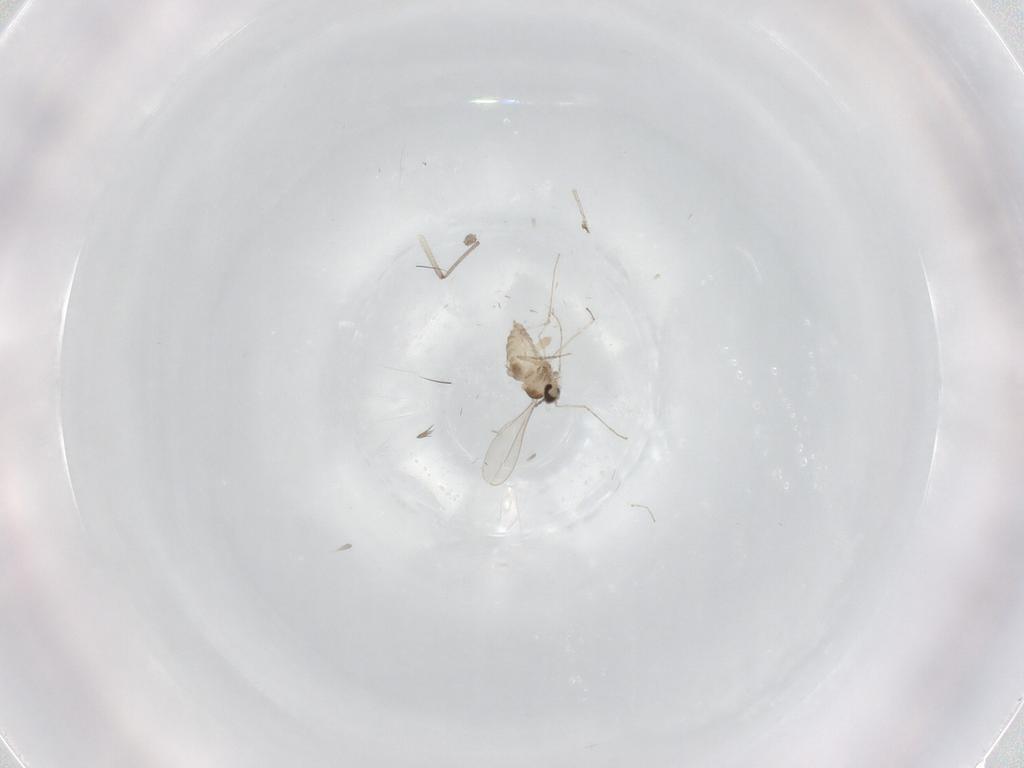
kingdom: Animalia
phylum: Arthropoda
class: Insecta
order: Diptera
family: Cecidomyiidae
